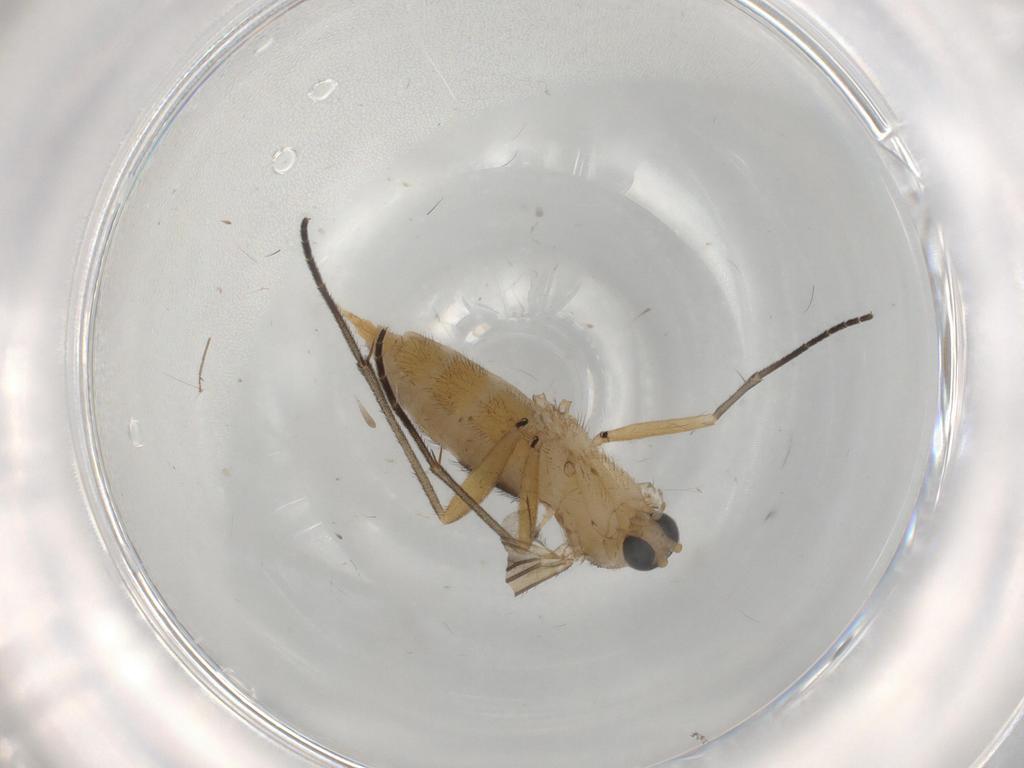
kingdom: Animalia
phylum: Arthropoda
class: Insecta
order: Diptera
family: Sciaridae
